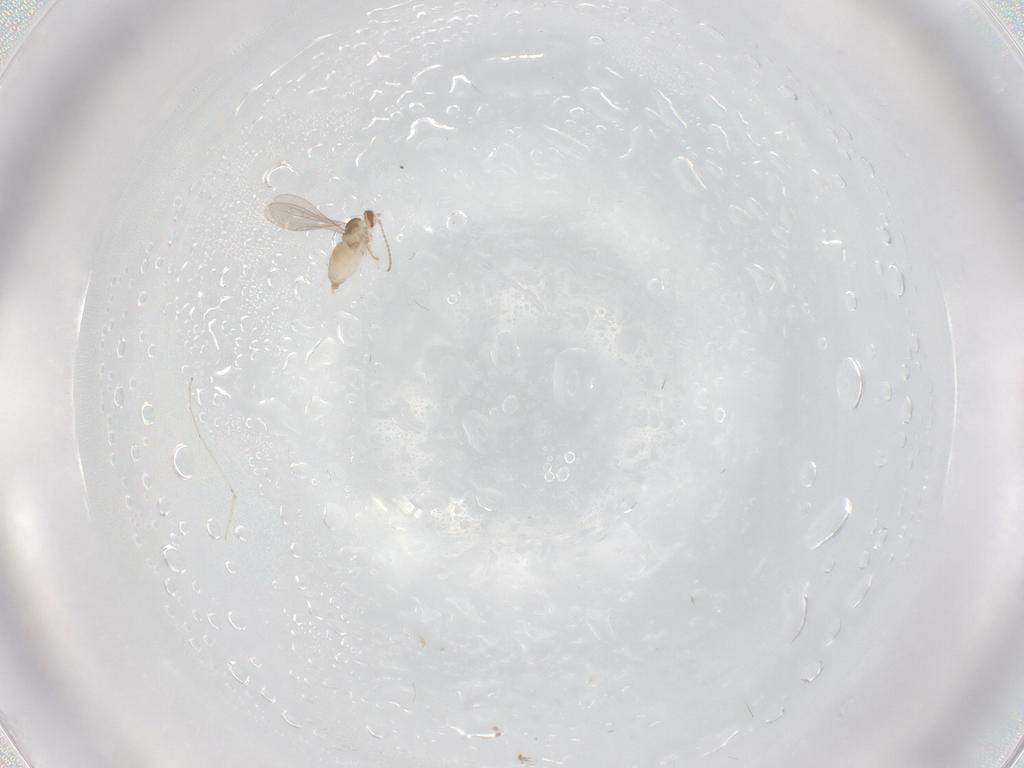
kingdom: Animalia
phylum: Arthropoda
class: Insecta
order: Diptera
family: Cecidomyiidae
